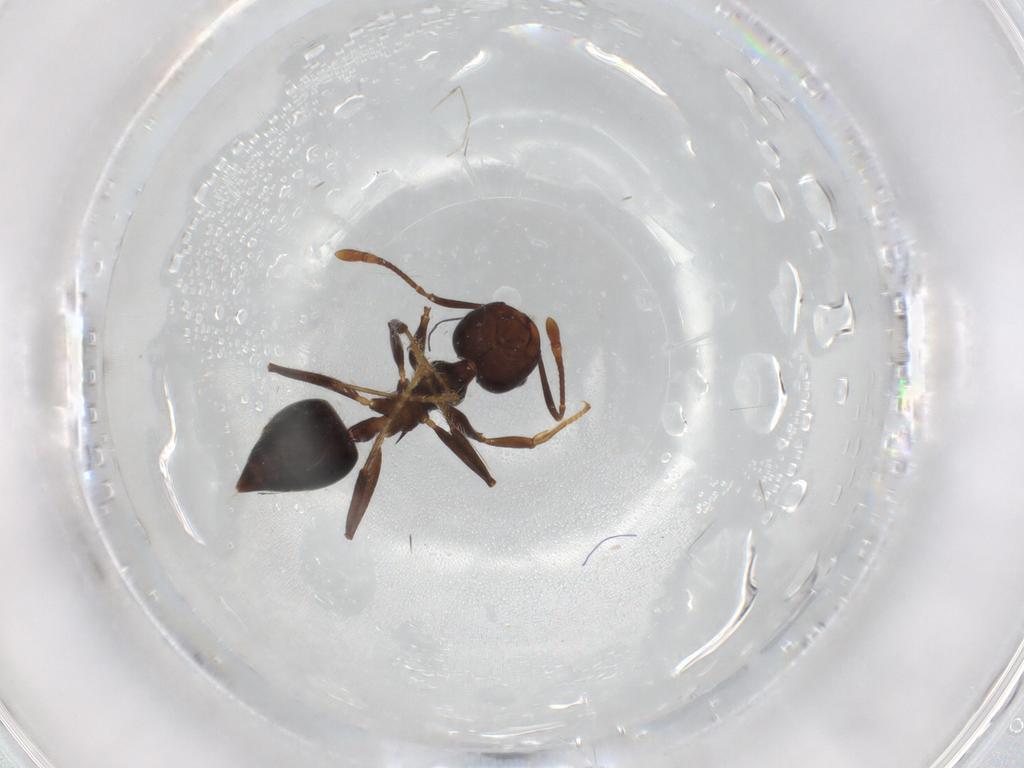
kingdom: Animalia
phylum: Arthropoda
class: Insecta
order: Hymenoptera
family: Formicidae
